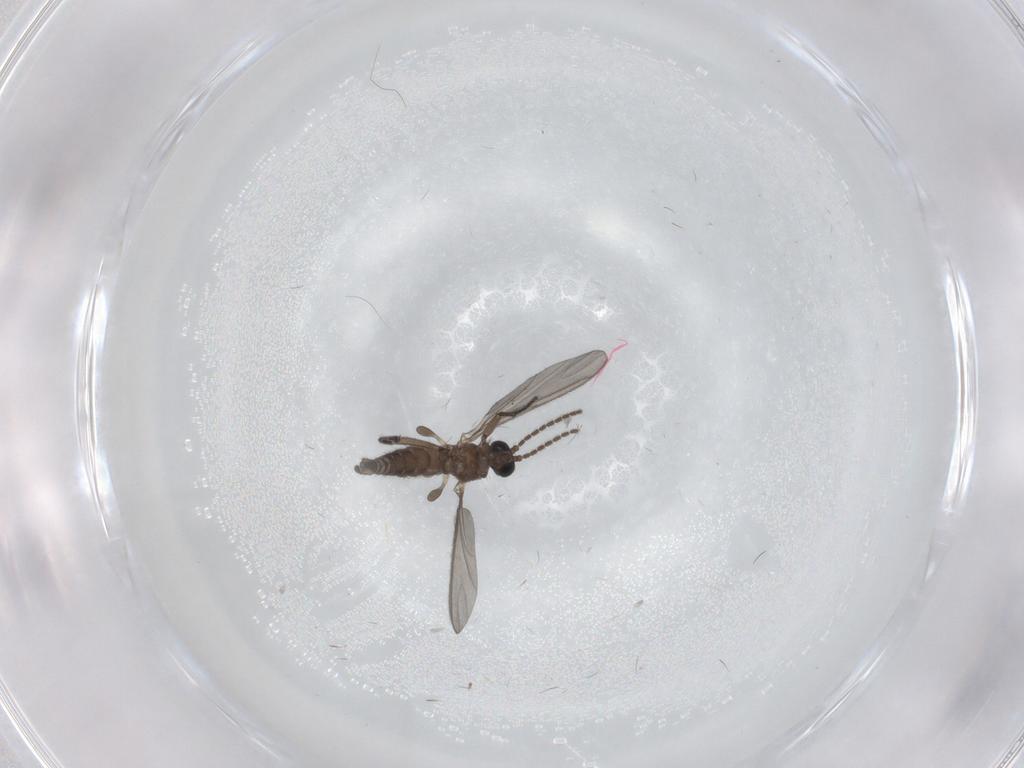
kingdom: Animalia
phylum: Arthropoda
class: Insecta
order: Diptera
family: Sciaridae
